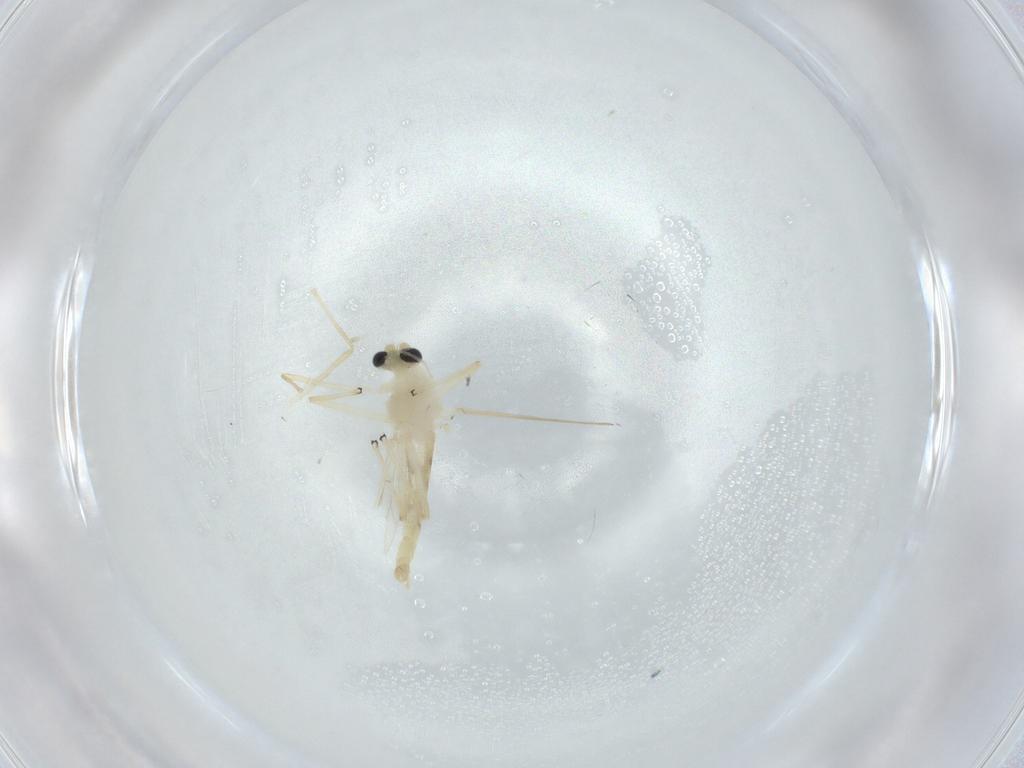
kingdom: Animalia
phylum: Arthropoda
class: Insecta
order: Diptera
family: Chironomidae
